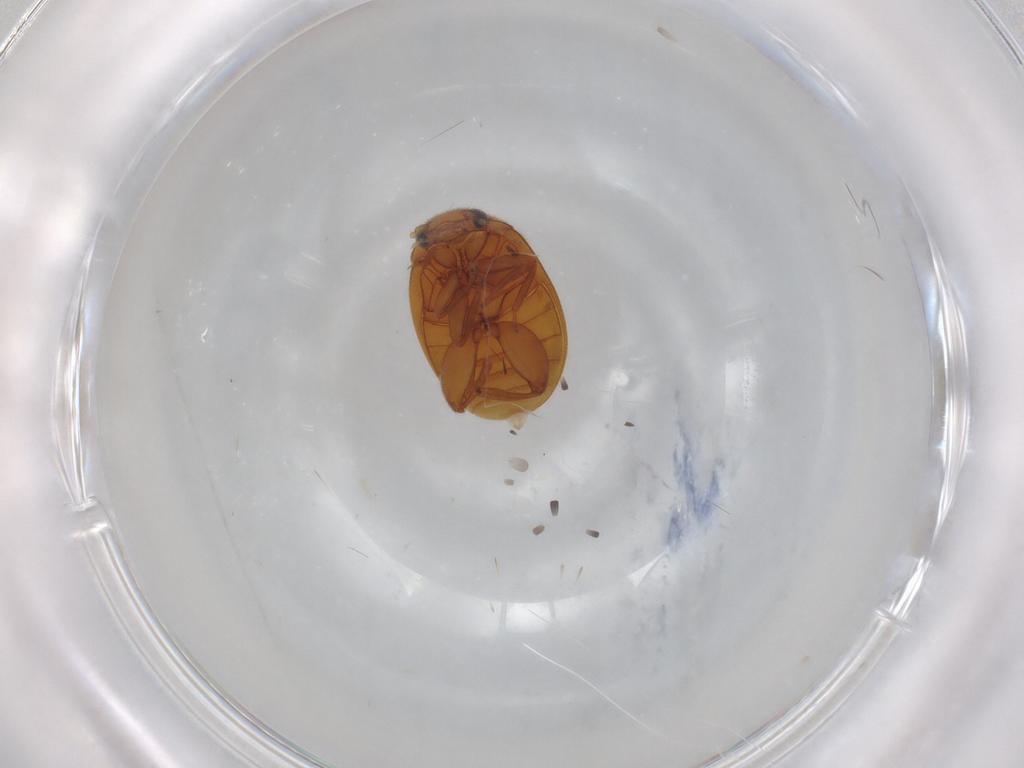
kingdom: Animalia
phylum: Arthropoda
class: Insecta
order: Coleoptera
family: Scirtidae
